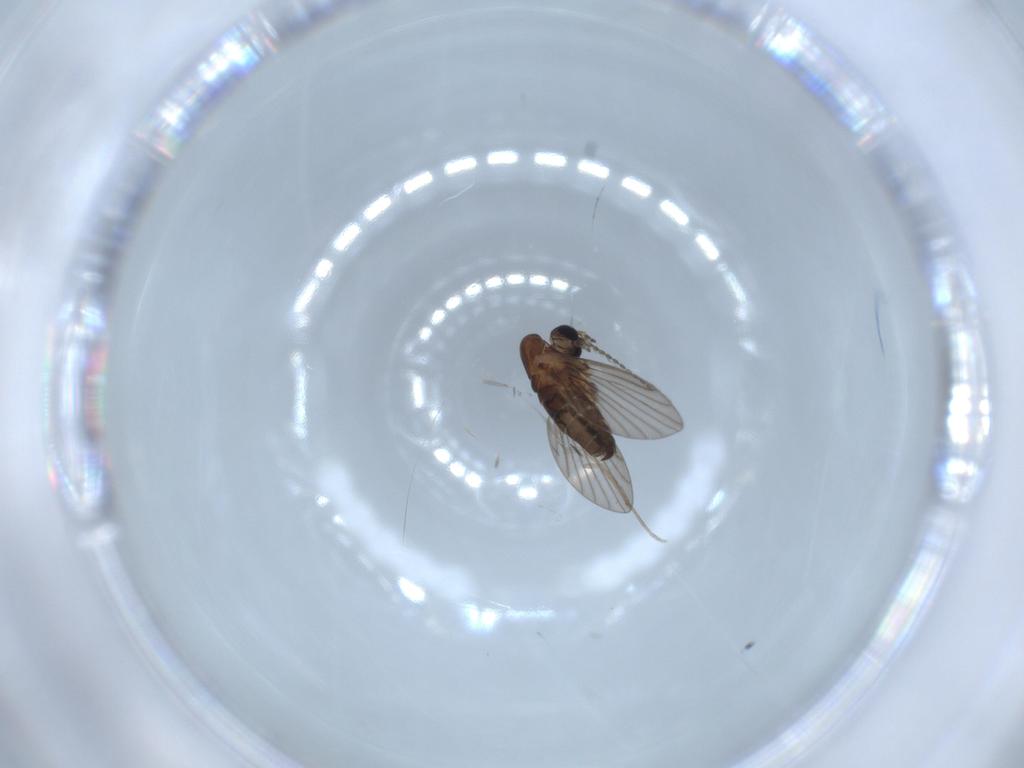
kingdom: Animalia
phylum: Arthropoda
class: Insecta
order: Diptera
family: Psychodidae
